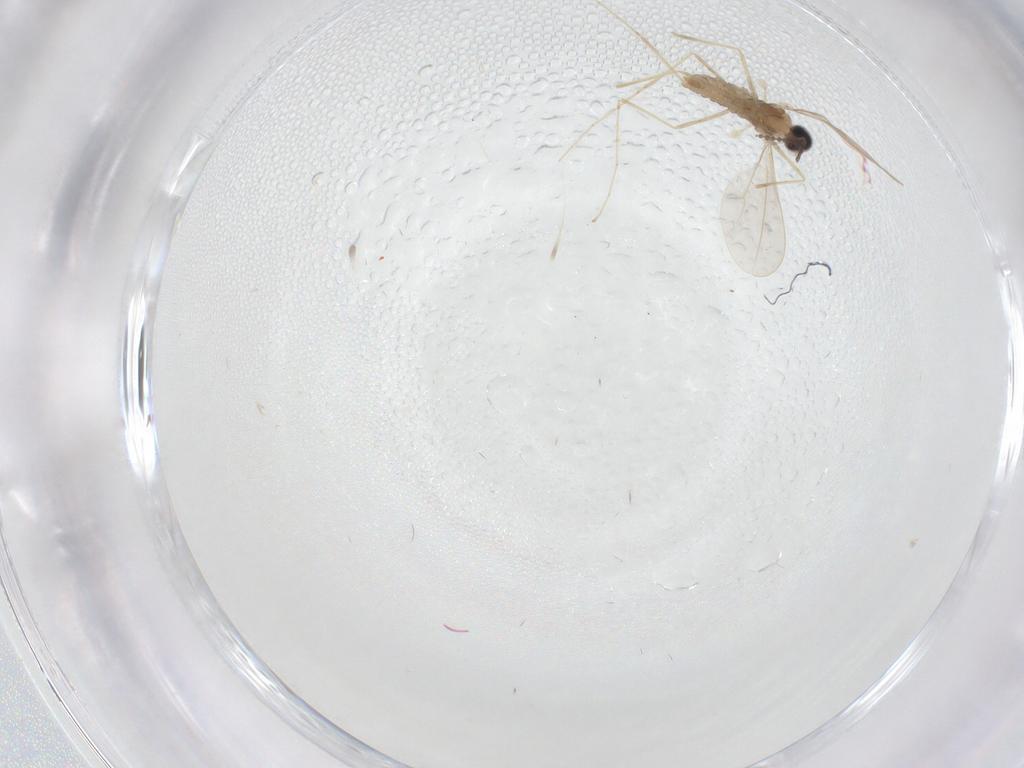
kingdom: Animalia
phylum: Arthropoda
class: Insecta
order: Diptera
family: Cecidomyiidae
